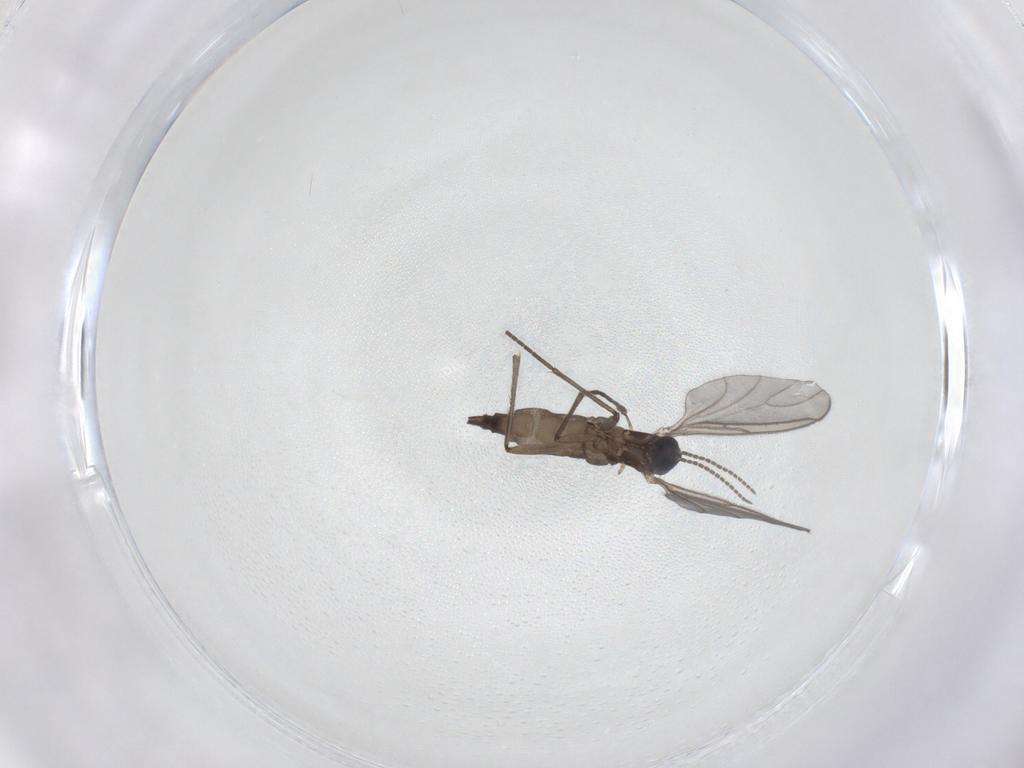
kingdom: Animalia
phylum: Arthropoda
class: Insecta
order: Diptera
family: Sciaridae
